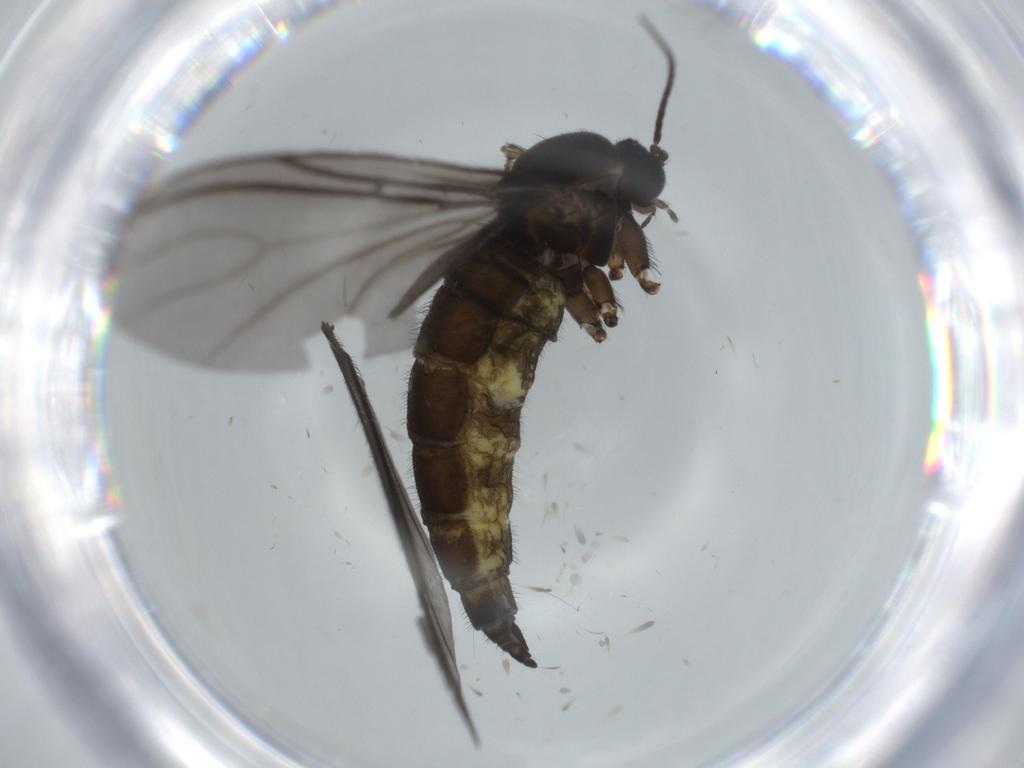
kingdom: Animalia
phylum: Arthropoda
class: Insecta
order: Diptera
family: Sciaridae
